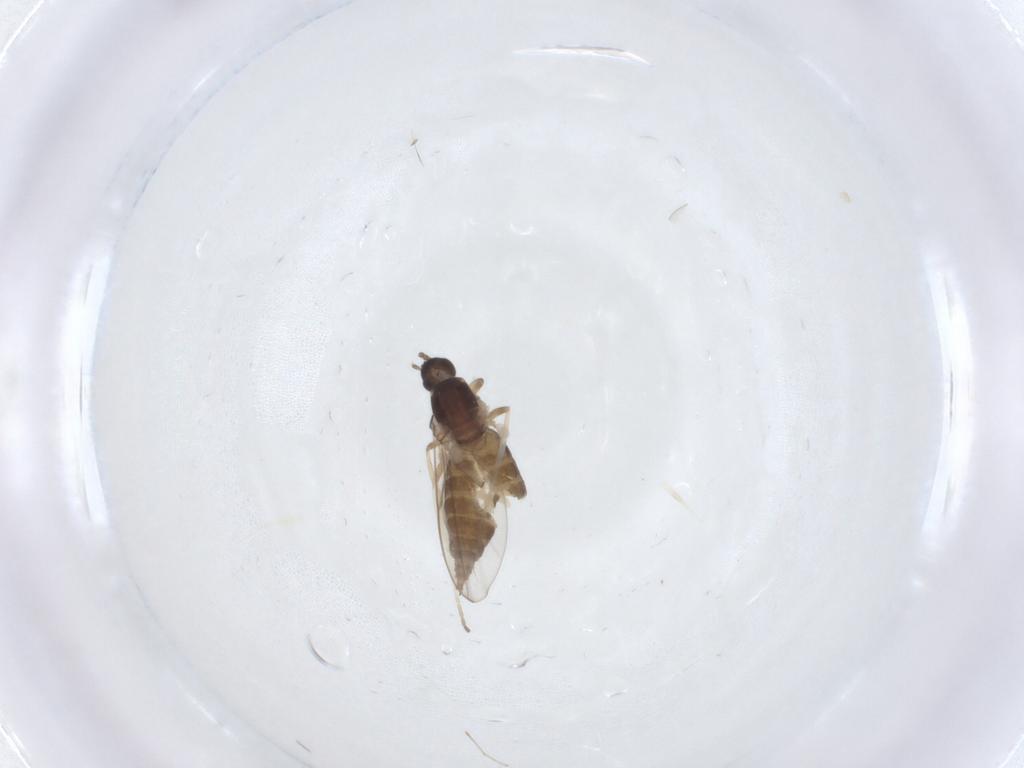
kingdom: Animalia
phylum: Arthropoda
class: Insecta
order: Diptera
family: Cecidomyiidae
